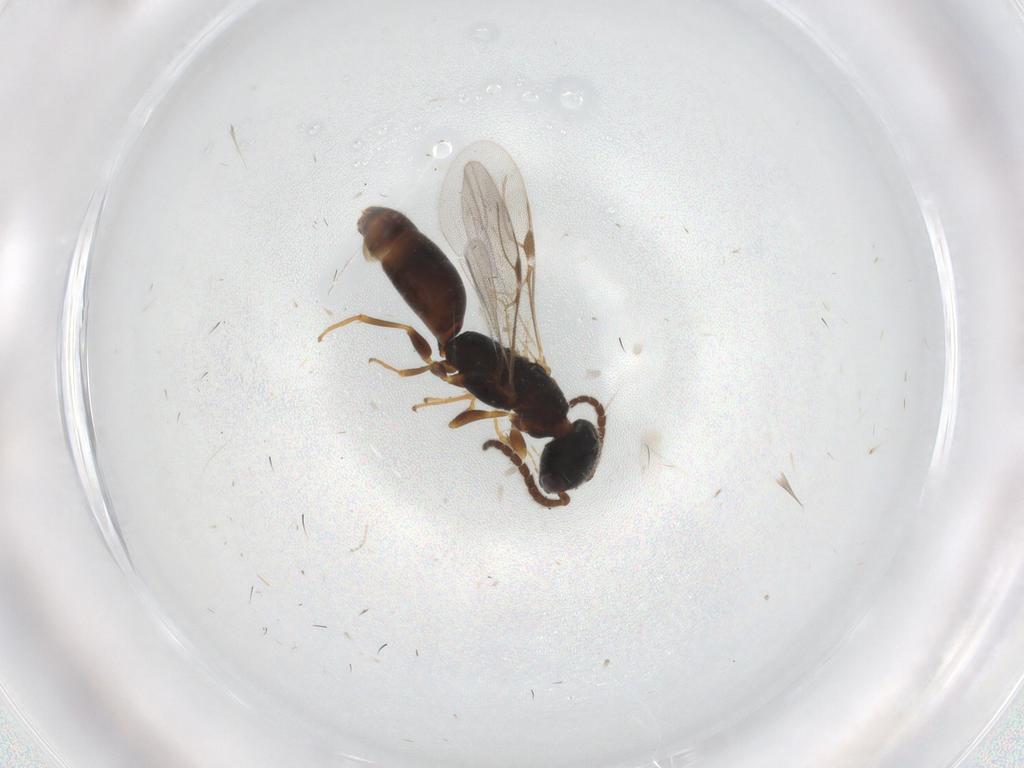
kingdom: Animalia
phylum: Arthropoda
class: Insecta
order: Hymenoptera
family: Bethylidae
